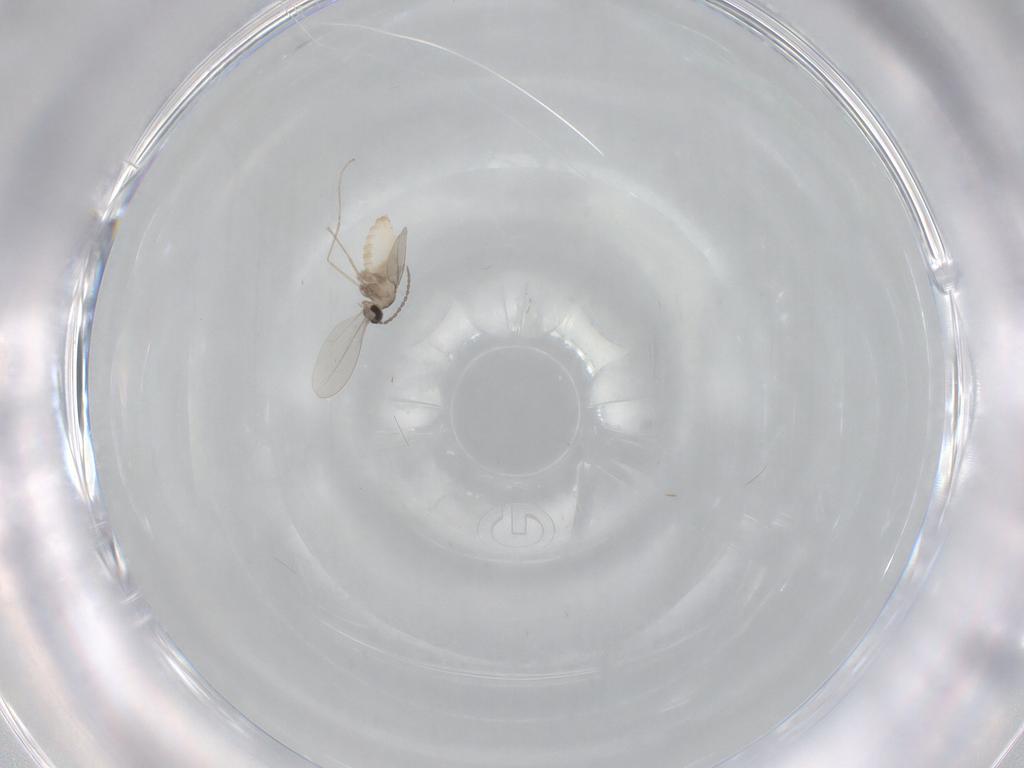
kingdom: Animalia
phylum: Arthropoda
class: Insecta
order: Diptera
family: Cecidomyiidae
